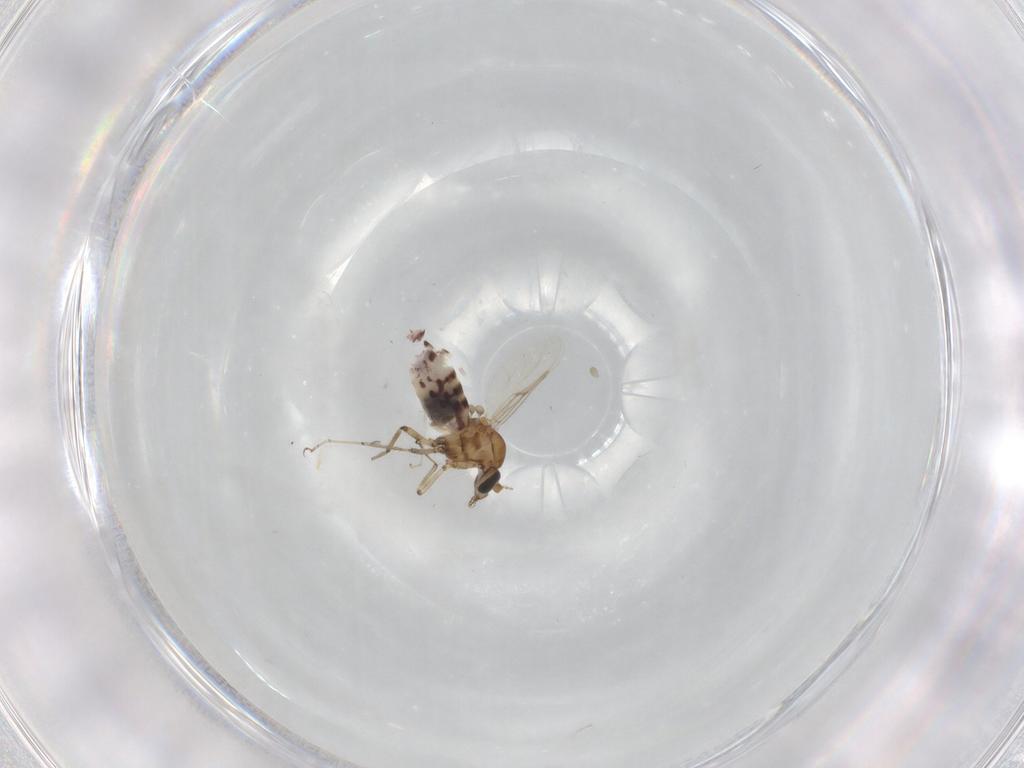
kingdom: Animalia
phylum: Arthropoda
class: Insecta
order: Diptera
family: Ceratopogonidae
